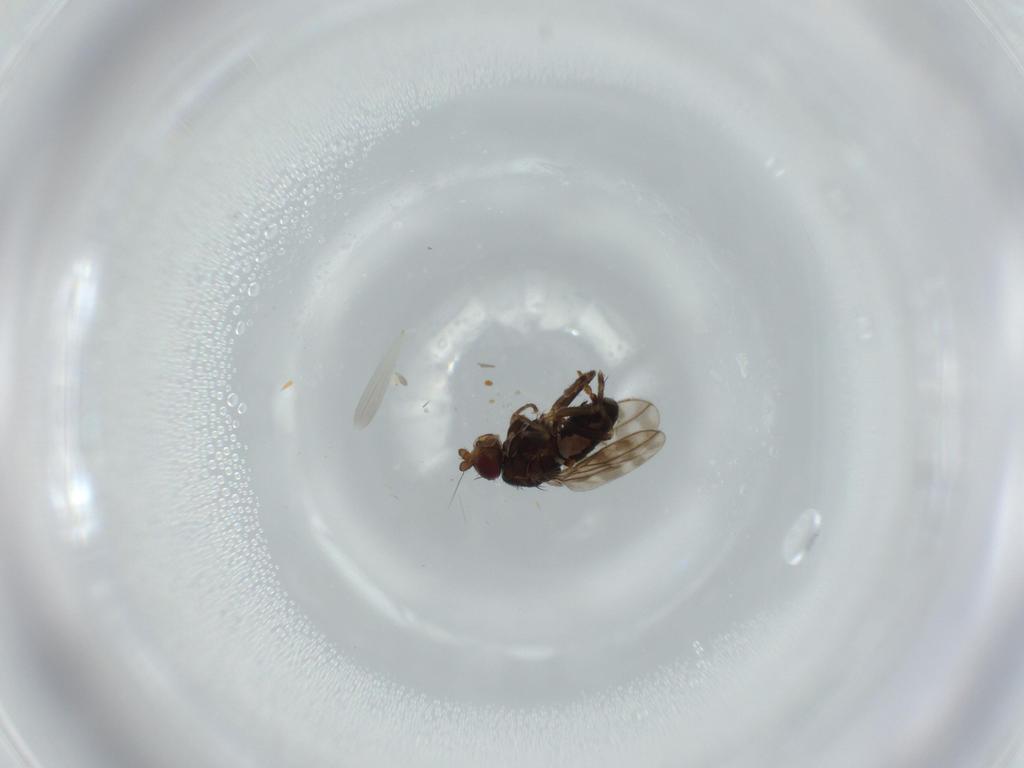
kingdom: Animalia
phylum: Arthropoda
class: Insecta
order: Diptera
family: Sphaeroceridae
